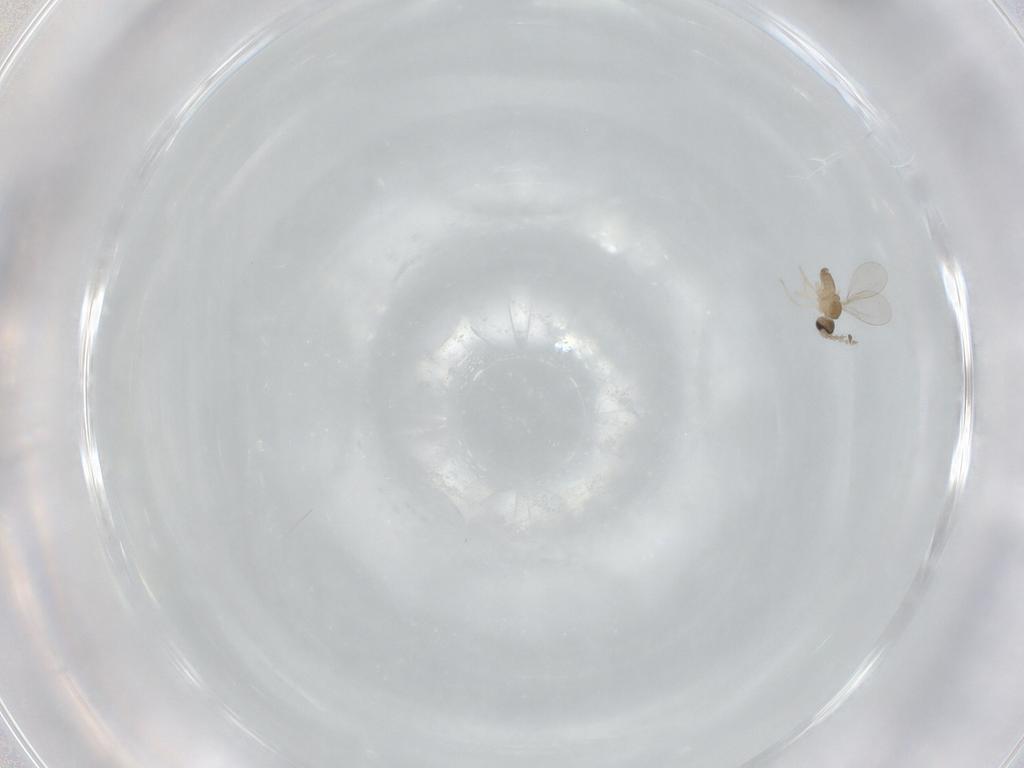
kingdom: Animalia
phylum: Arthropoda
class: Insecta
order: Diptera
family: Cecidomyiidae
